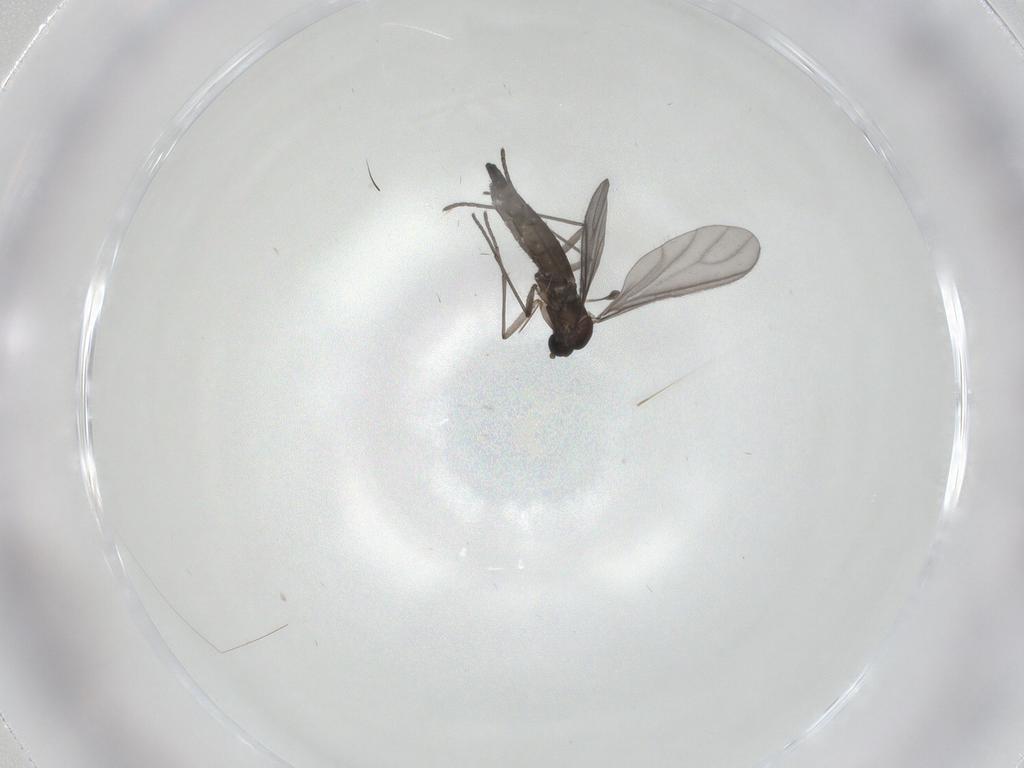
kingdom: Animalia
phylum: Arthropoda
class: Insecta
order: Diptera
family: Sciaridae
